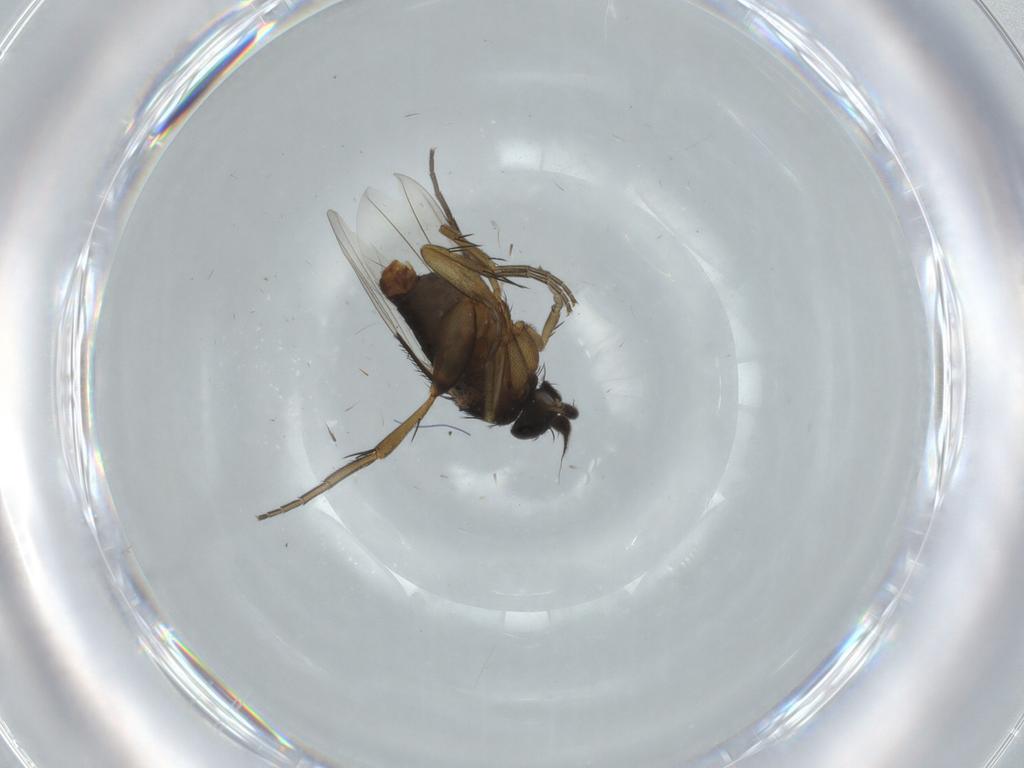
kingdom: Animalia
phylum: Arthropoda
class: Insecta
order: Diptera
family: Phoridae
